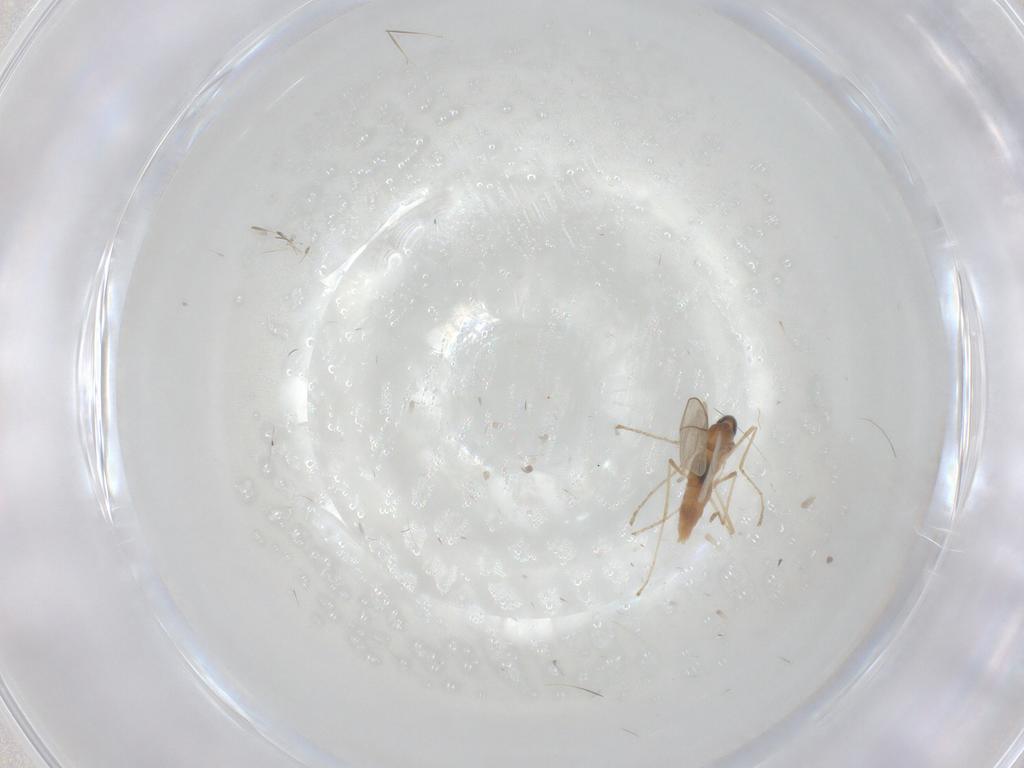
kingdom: Animalia
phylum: Arthropoda
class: Insecta
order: Diptera
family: Cecidomyiidae
